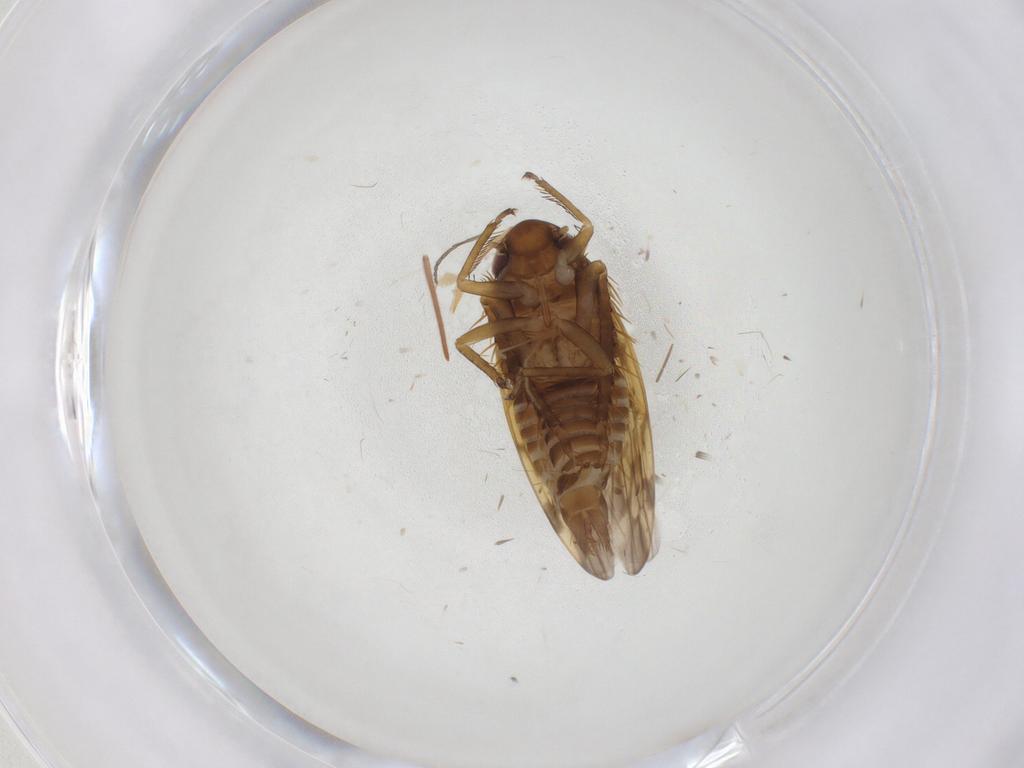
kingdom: Animalia
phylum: Arthropoda
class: Insecta
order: Hemiptera
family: Cicadellidae
